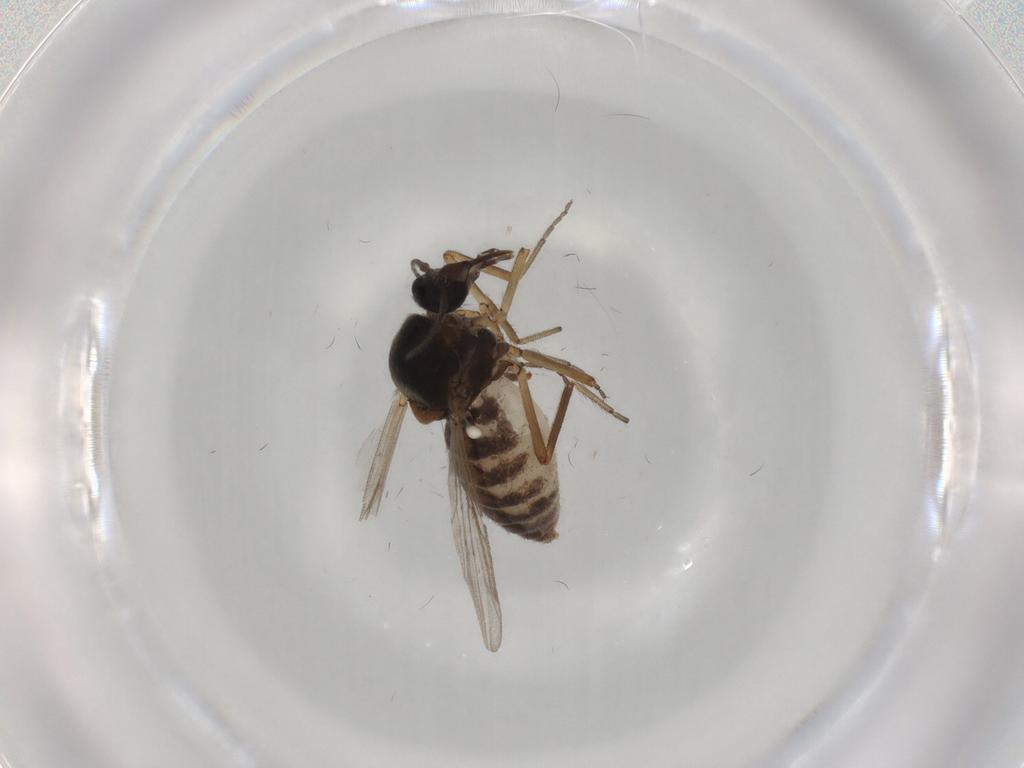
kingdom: Animalia
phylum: Arthropoda
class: Insecta
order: Diptera
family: Ceratopogonidae
